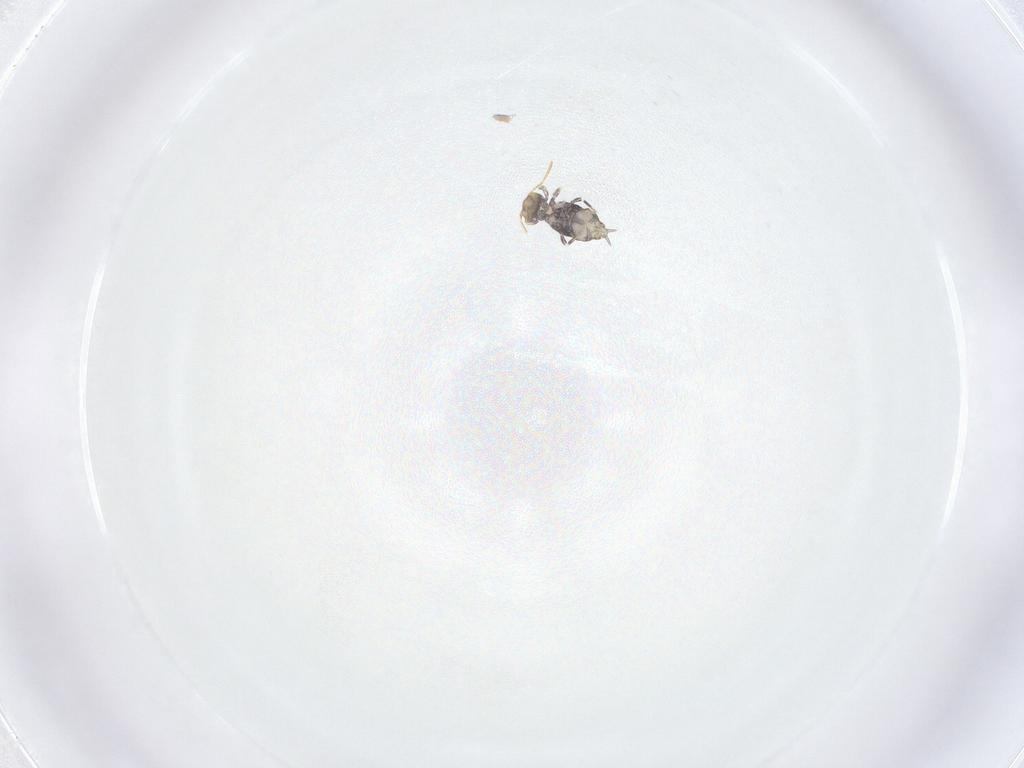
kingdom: Animalia
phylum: Arthropoda
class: Collembola
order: Symphypleona
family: Katiannidae
